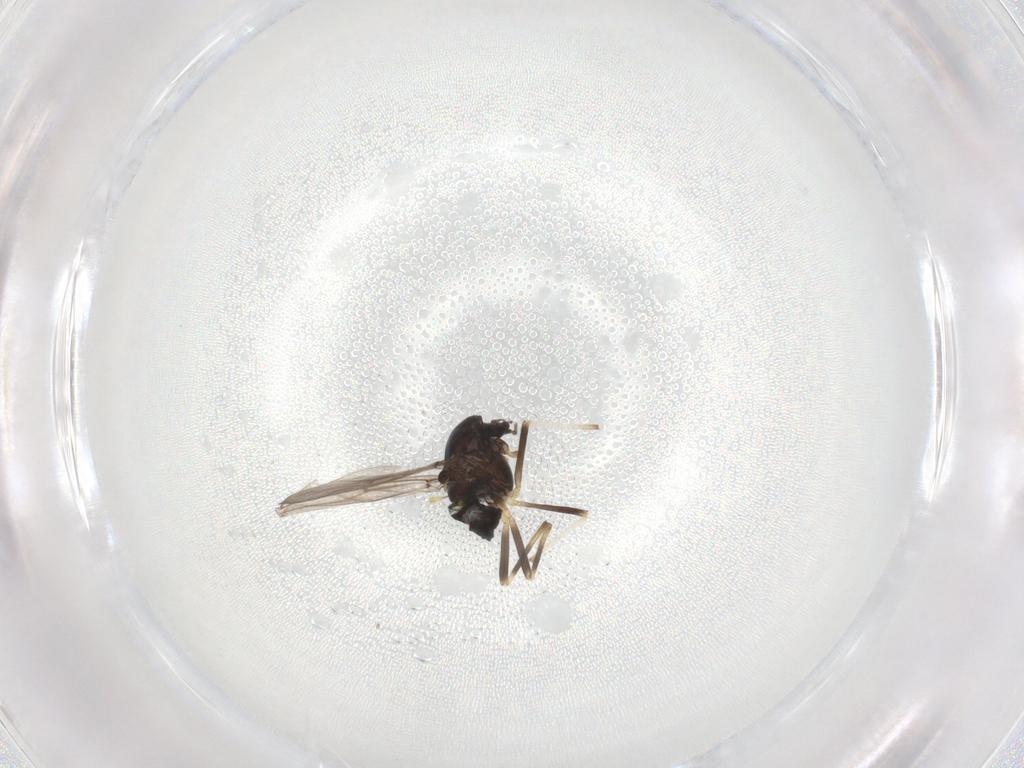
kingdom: Animalia
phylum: Arthropoda
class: Insecta
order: Diptera
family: Chironomidae
